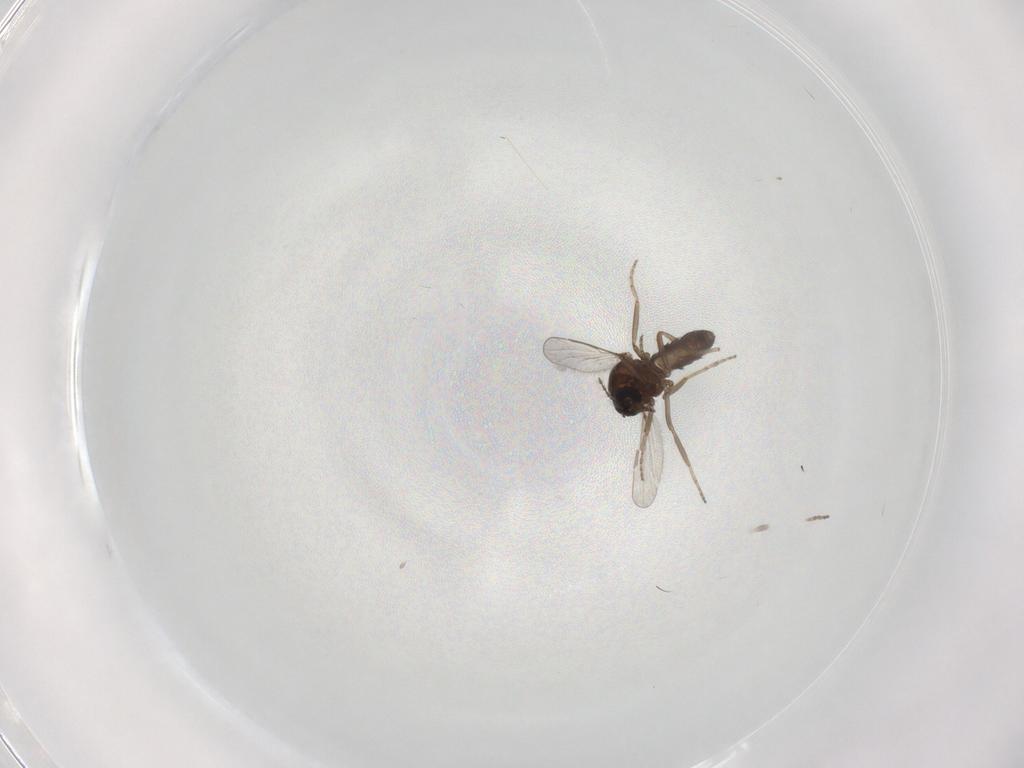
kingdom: Animalia
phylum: Arthropoda
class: Insecta
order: Diptera
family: Ceratopogonidae
